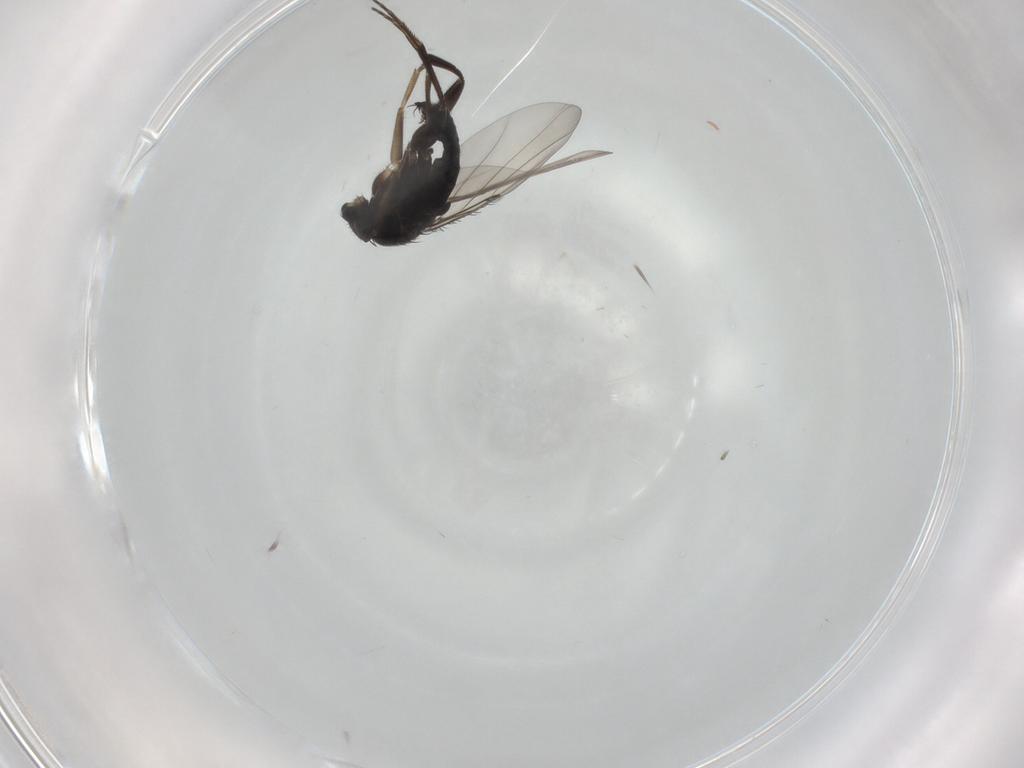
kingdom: Animalia
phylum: Arthropoda
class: Insecta
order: Diptera
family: Phoridae
